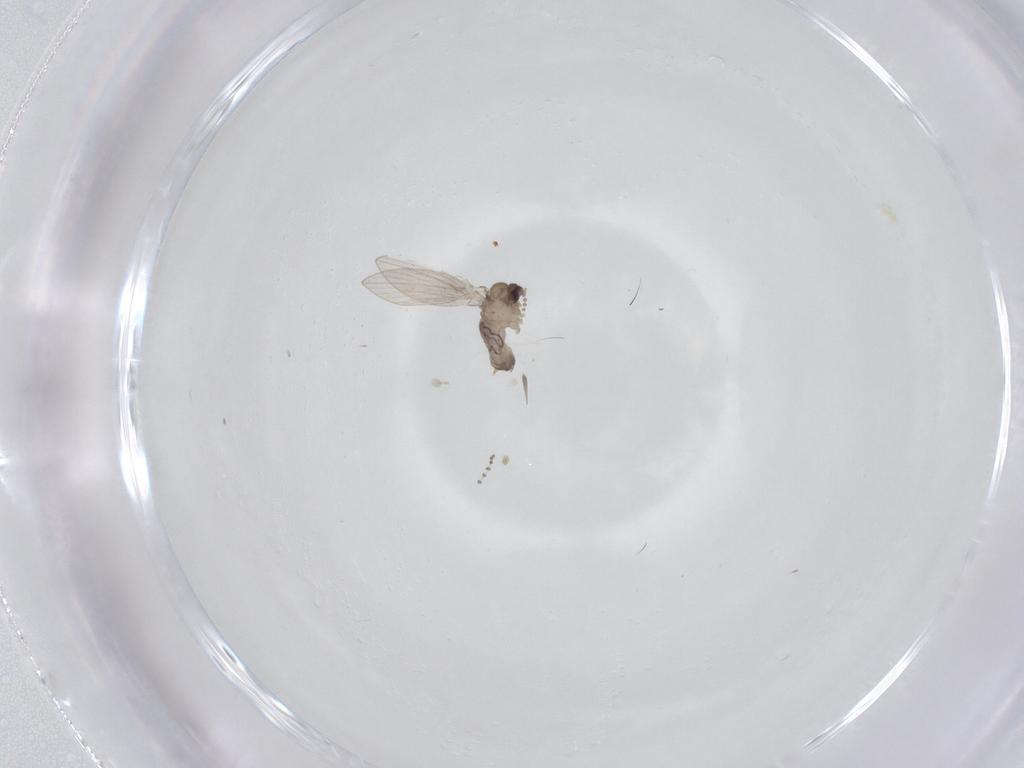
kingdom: Animalia
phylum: Arthropoda
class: Insecta
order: Diptera
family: Psychodidae
